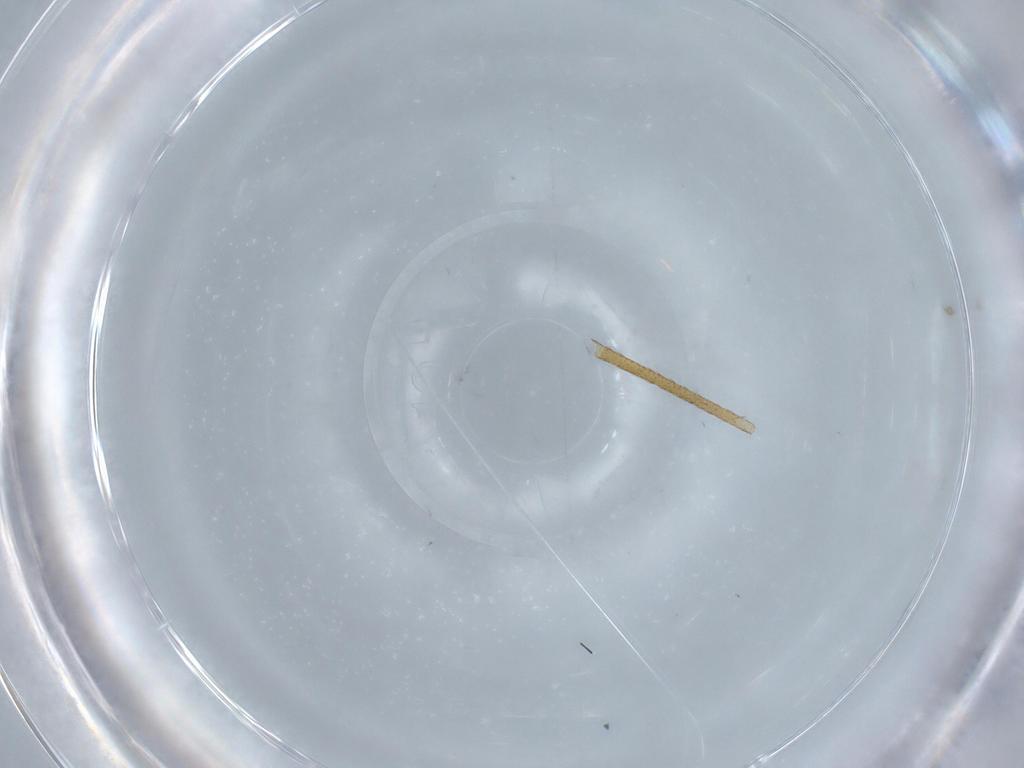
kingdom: Animalia
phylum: Arthropoda
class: Insecta
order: Diptera
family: Limoniidae
